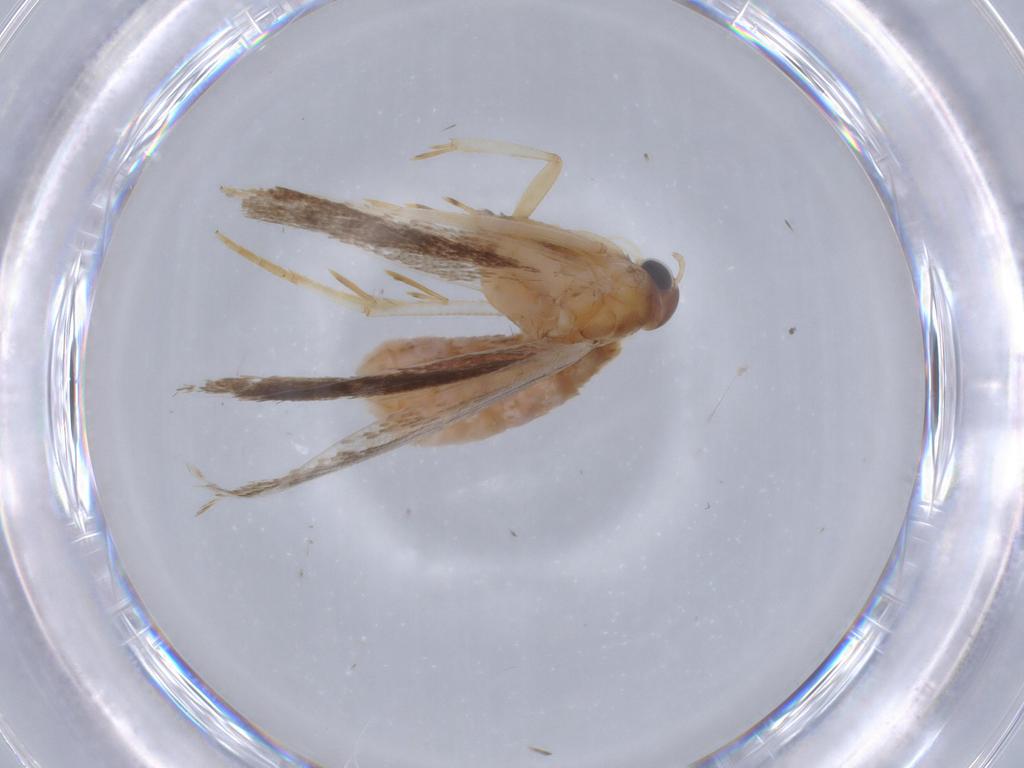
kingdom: Animalia
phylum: Arthropoda
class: Insecta
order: Lepidoptera
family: Gelechiidae
